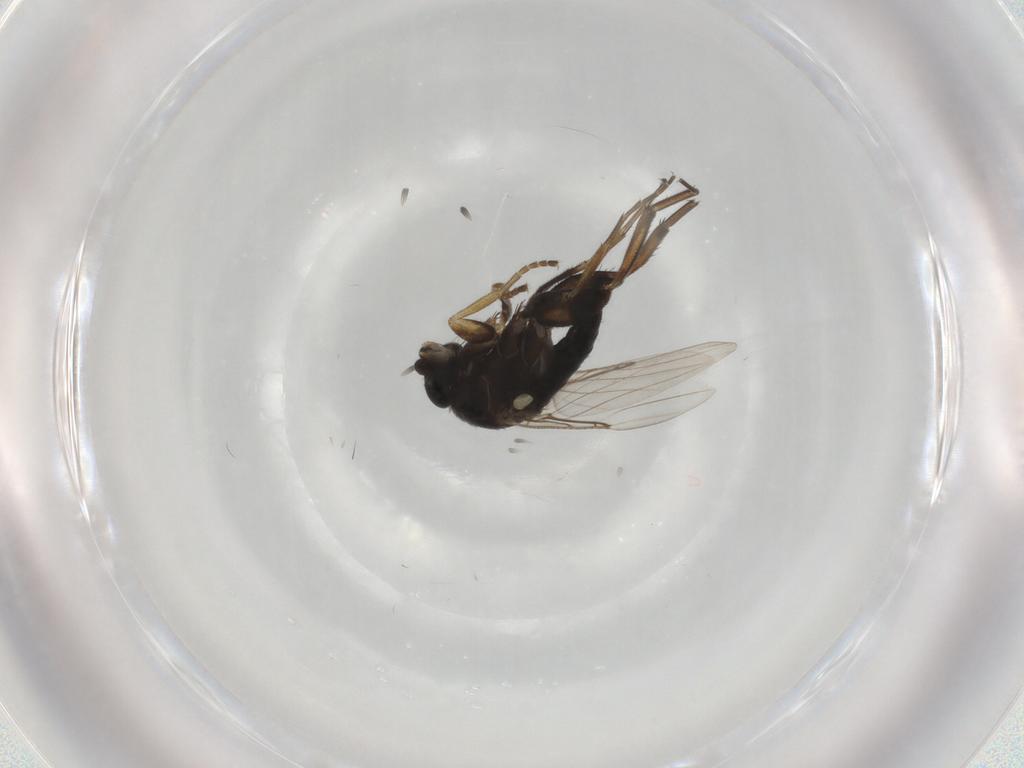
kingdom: Animalia
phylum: Arthropoda
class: Insecta
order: Diptera
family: Phoridae
